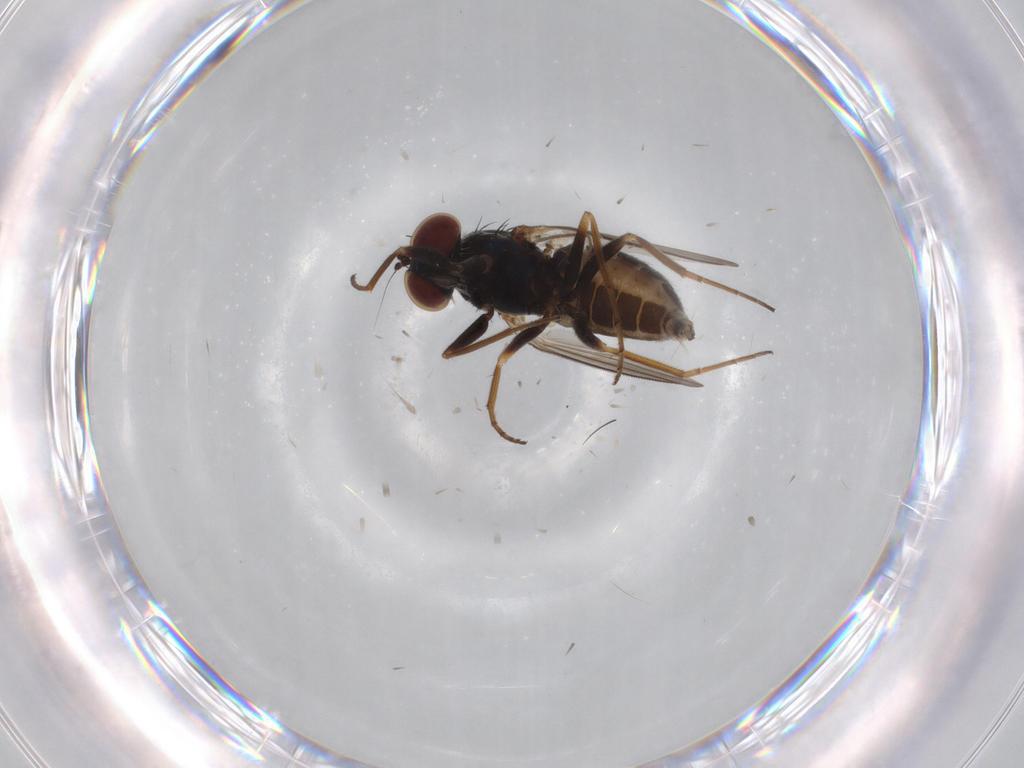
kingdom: Animalia
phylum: Arthropoda
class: Insecta
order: Diptera
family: Dolichopodidae
